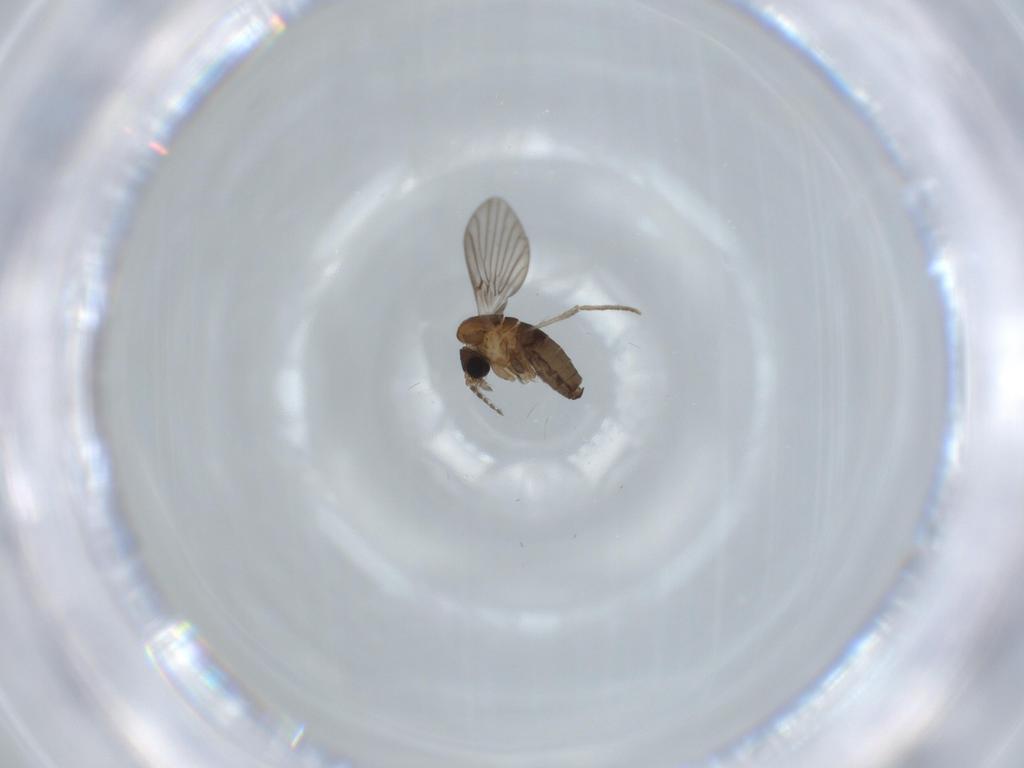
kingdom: Animalia
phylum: Arthropoda
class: Insecta
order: Diptera
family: Psychodidae
